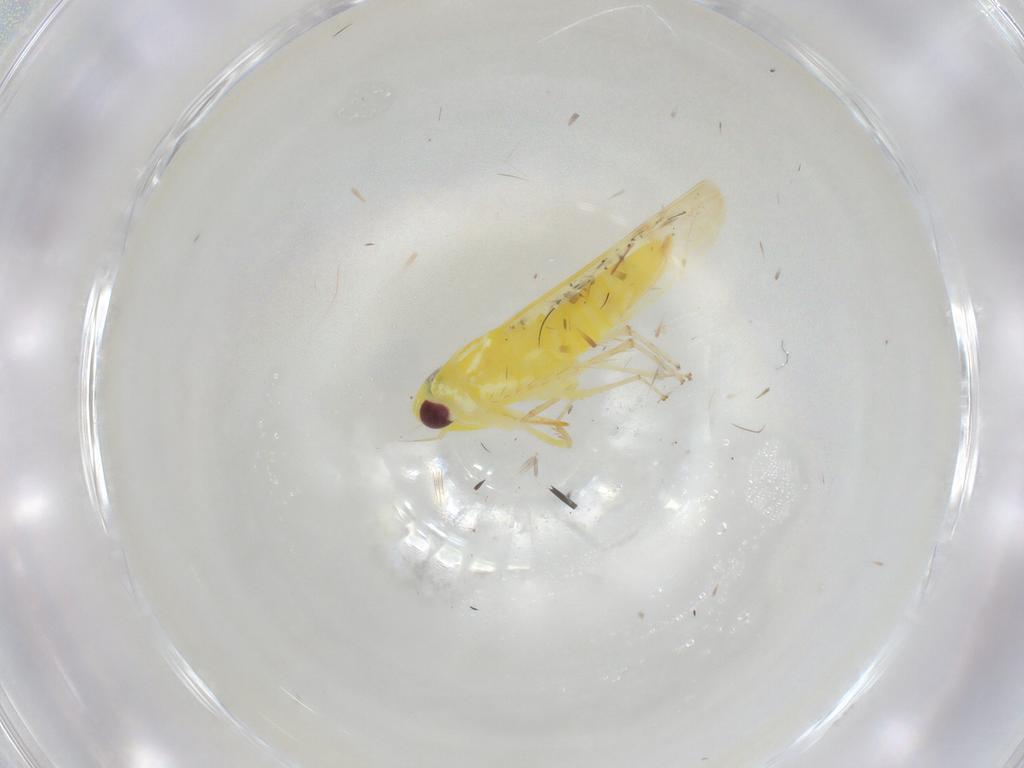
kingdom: Animalia
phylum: Arthropoda
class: Insecta
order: Hemiptera
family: Cicadellidae
